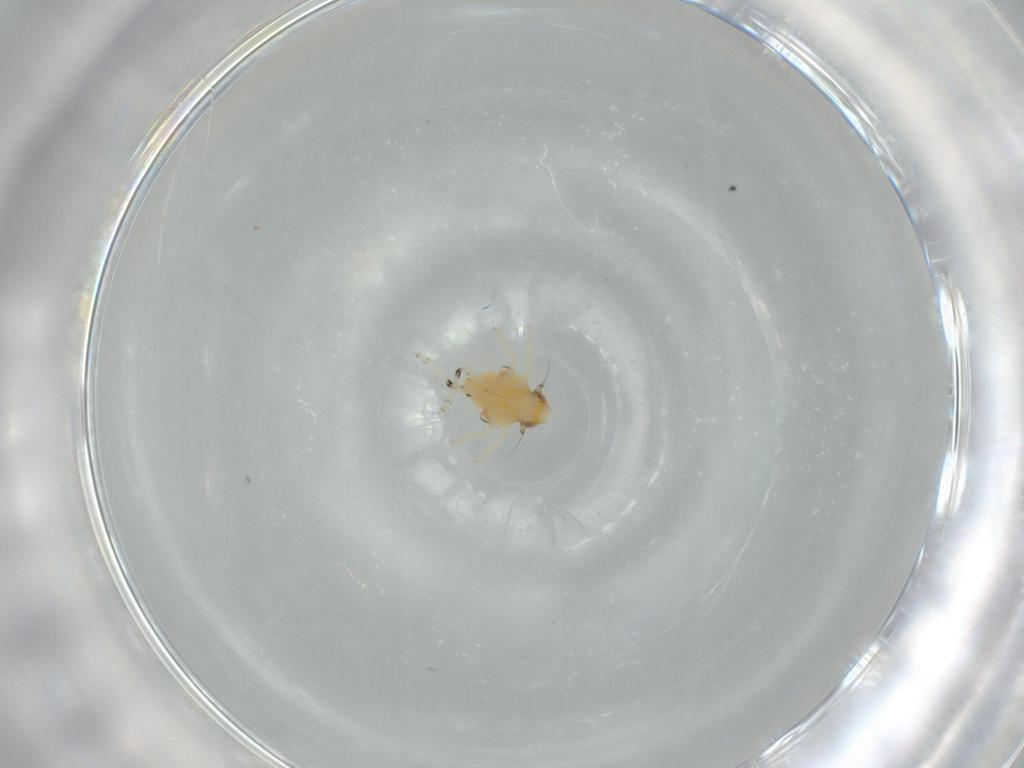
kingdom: Animalia
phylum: Arthropoda
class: Insecta
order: Hemiptera
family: Nogodinidae
